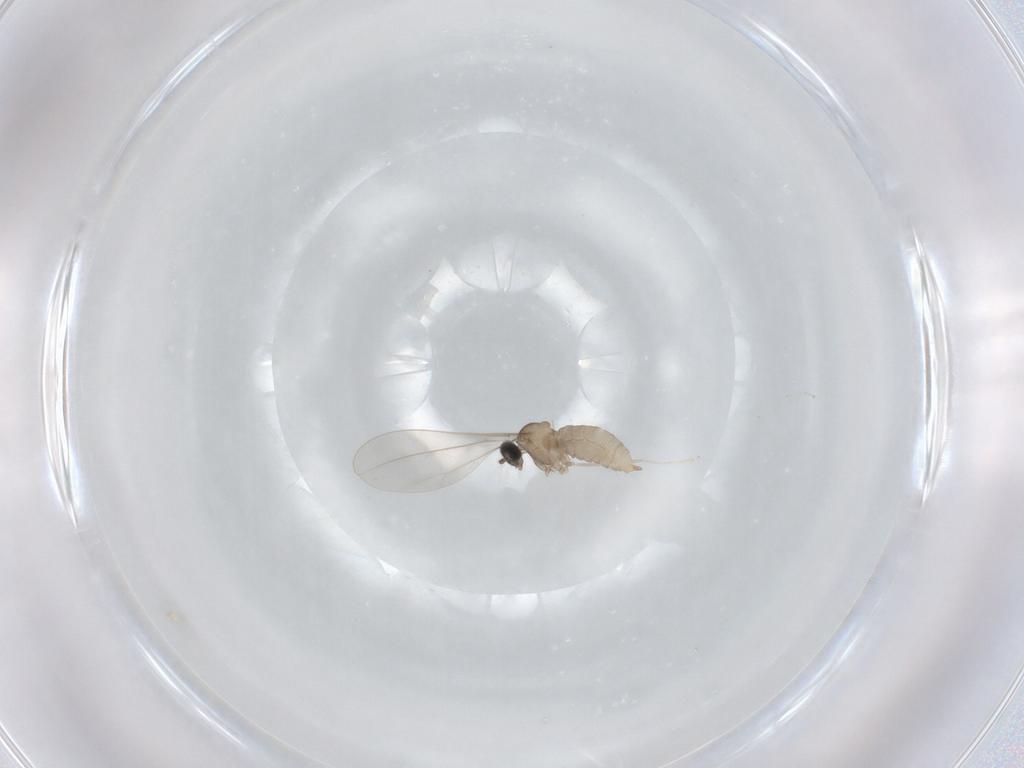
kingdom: Animalia
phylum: Arthropoda
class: Insecta
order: Diptera
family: Cecidomyiidae
